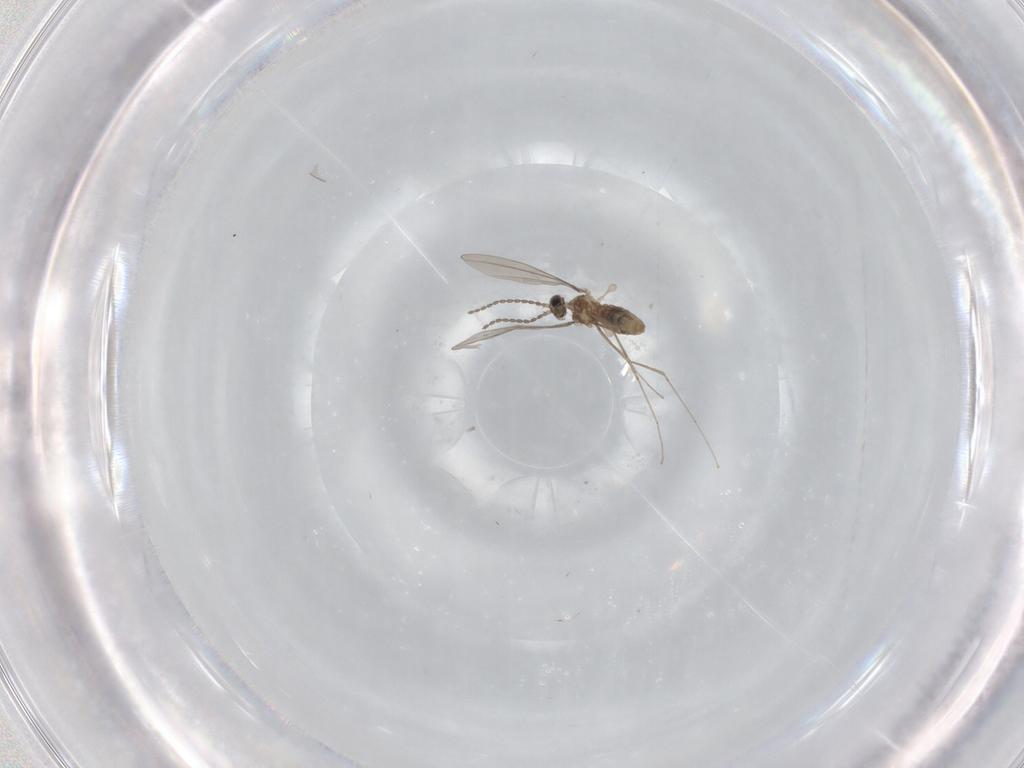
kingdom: Animalia
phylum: Arthropoda
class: Insecta
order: Diptera
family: Cecidomyiidae
